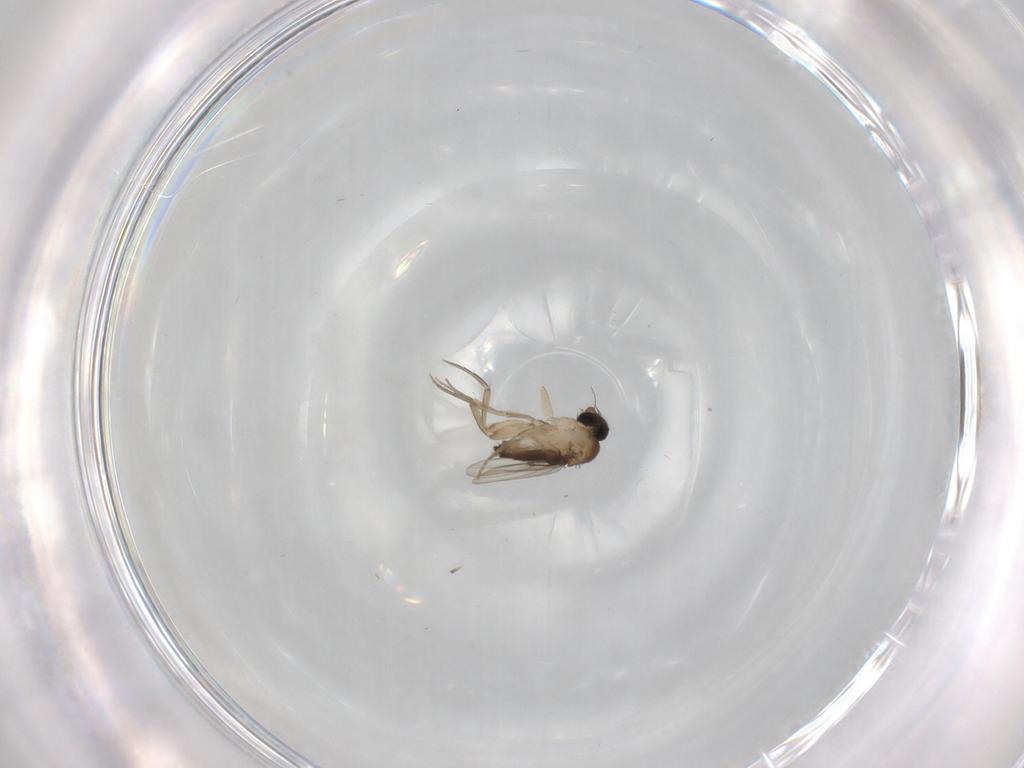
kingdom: Animalia
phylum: Arthropoda
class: Insecta
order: Diptera
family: Phoridae
